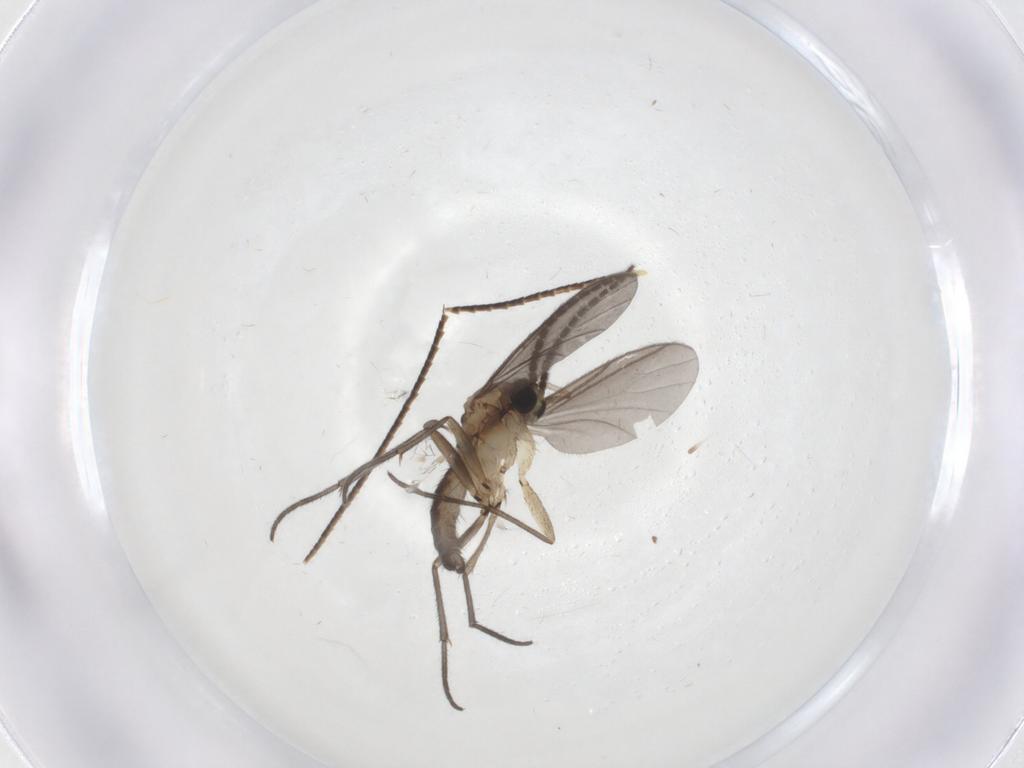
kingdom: Animalia
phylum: Arthropoda
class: Insecta
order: Diptera
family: Sciaridae
